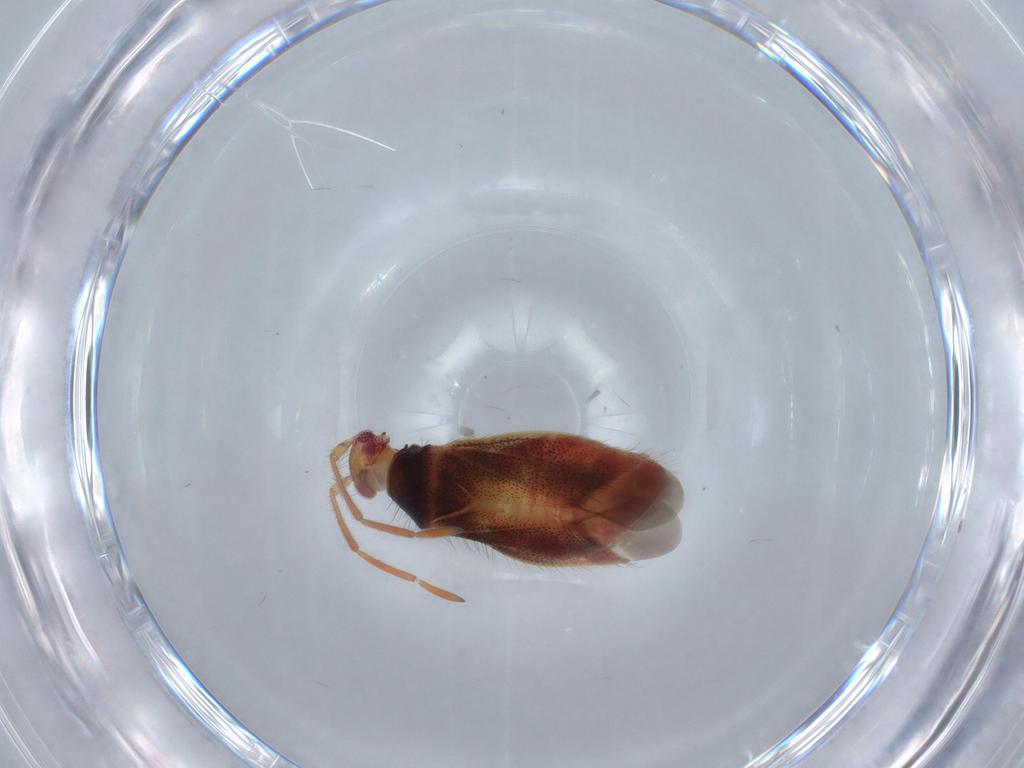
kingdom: Animalia
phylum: Arthropoda
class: Insecta
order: Hemiptera
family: Miridae
